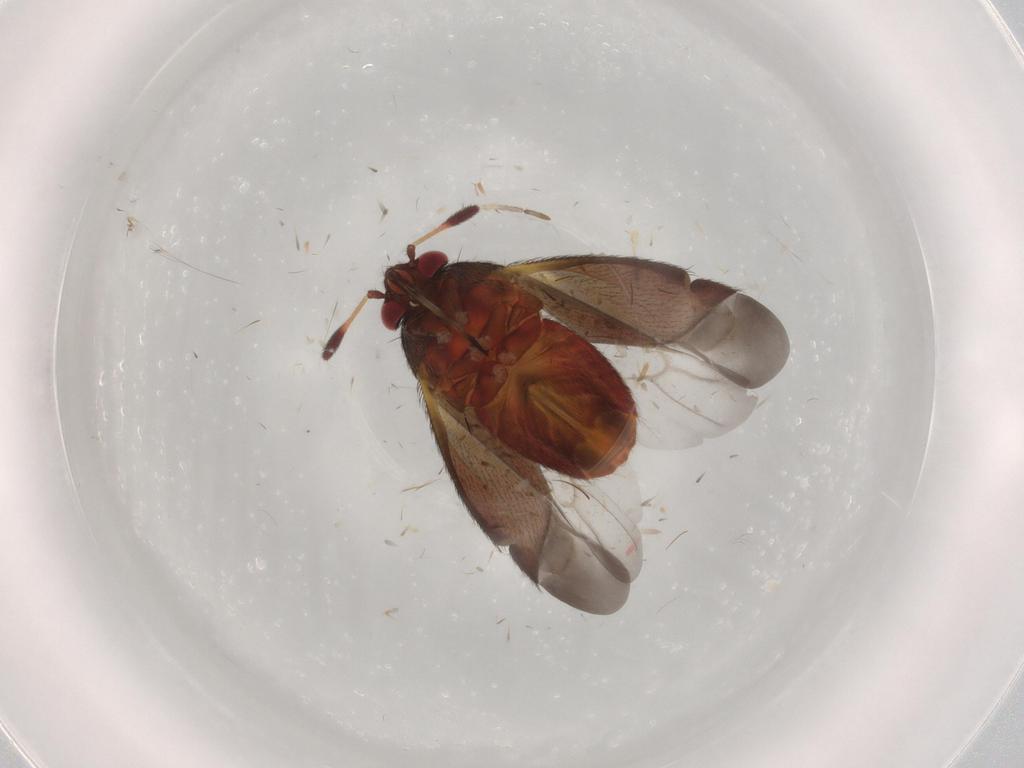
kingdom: Animalia
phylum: Arthropoda
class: Insecta
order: Hemiptera
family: Miridae
